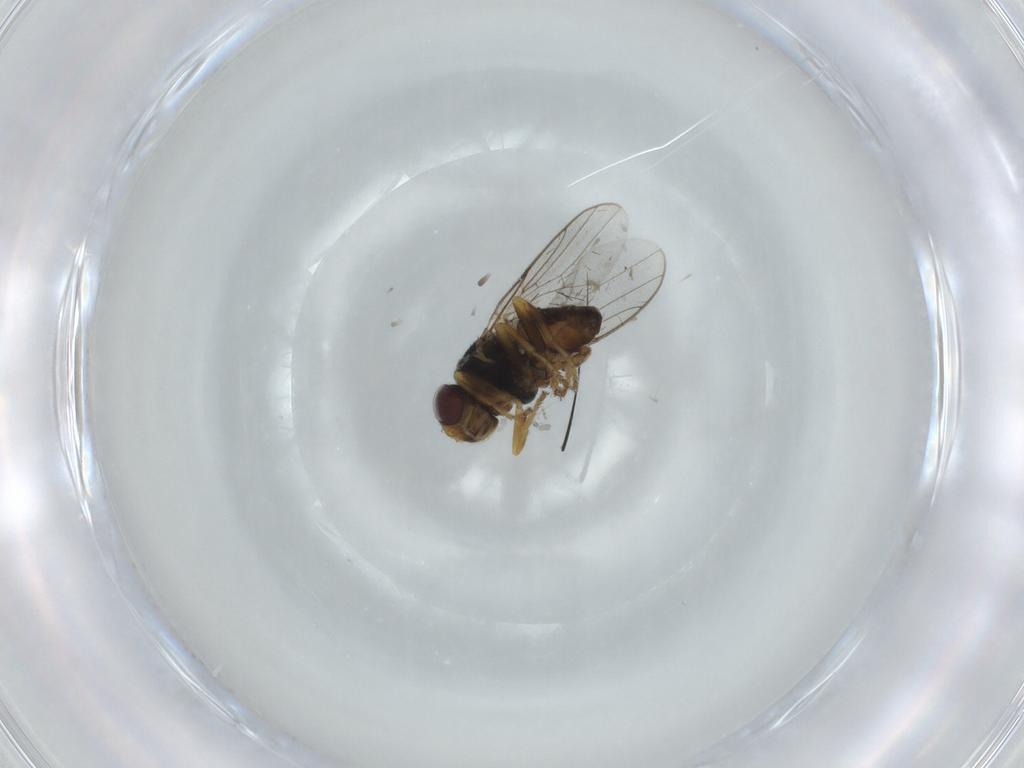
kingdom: Animalia
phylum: Arthropoda
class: Insecta
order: Diptera
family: Chloropidae
